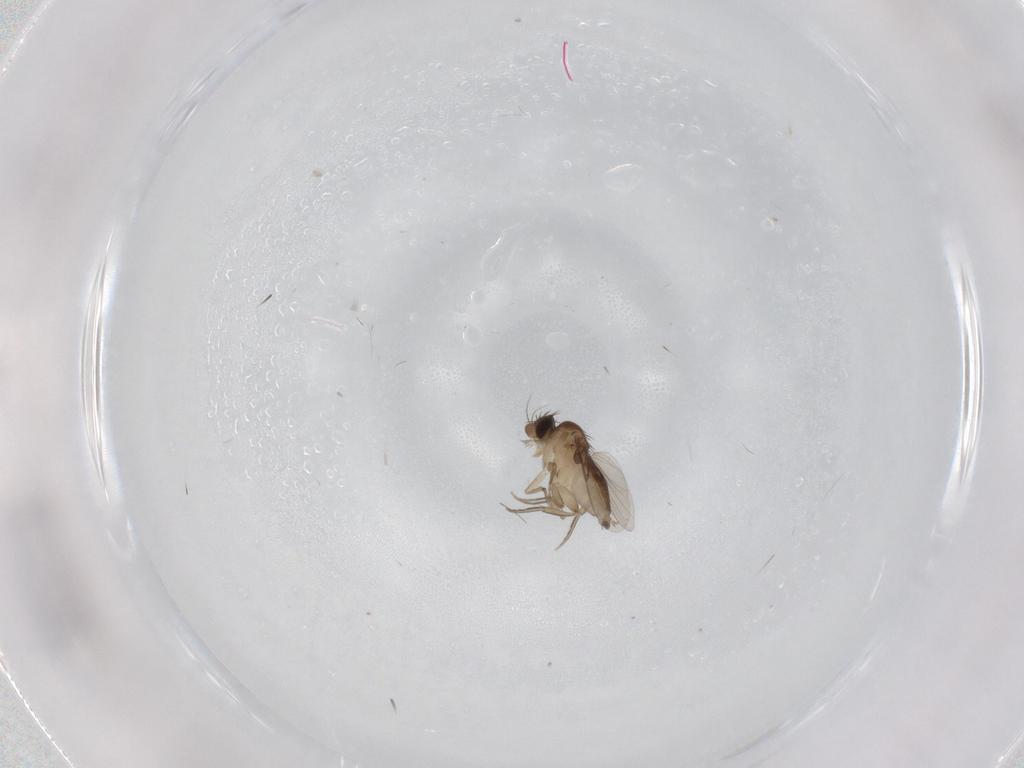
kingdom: Animalia
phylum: Arthropoda
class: Insecta
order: Diptera
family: Phoridae
